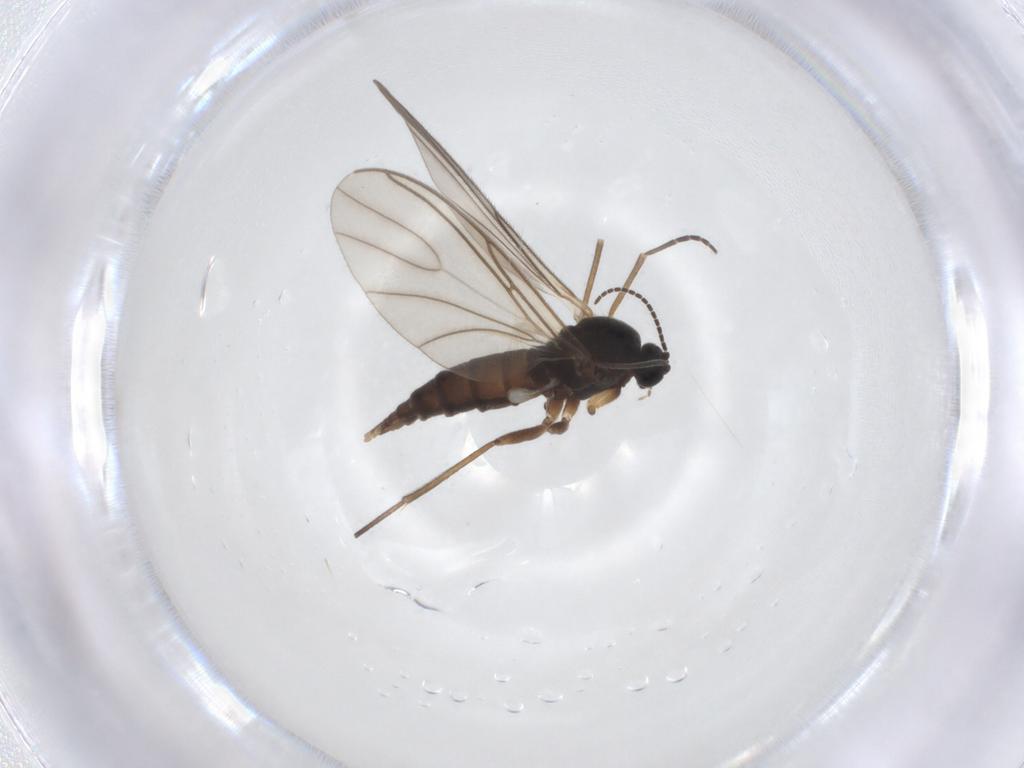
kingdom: Animalia
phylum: Arthropoda
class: Insecta
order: Diptera
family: Sciaridae
